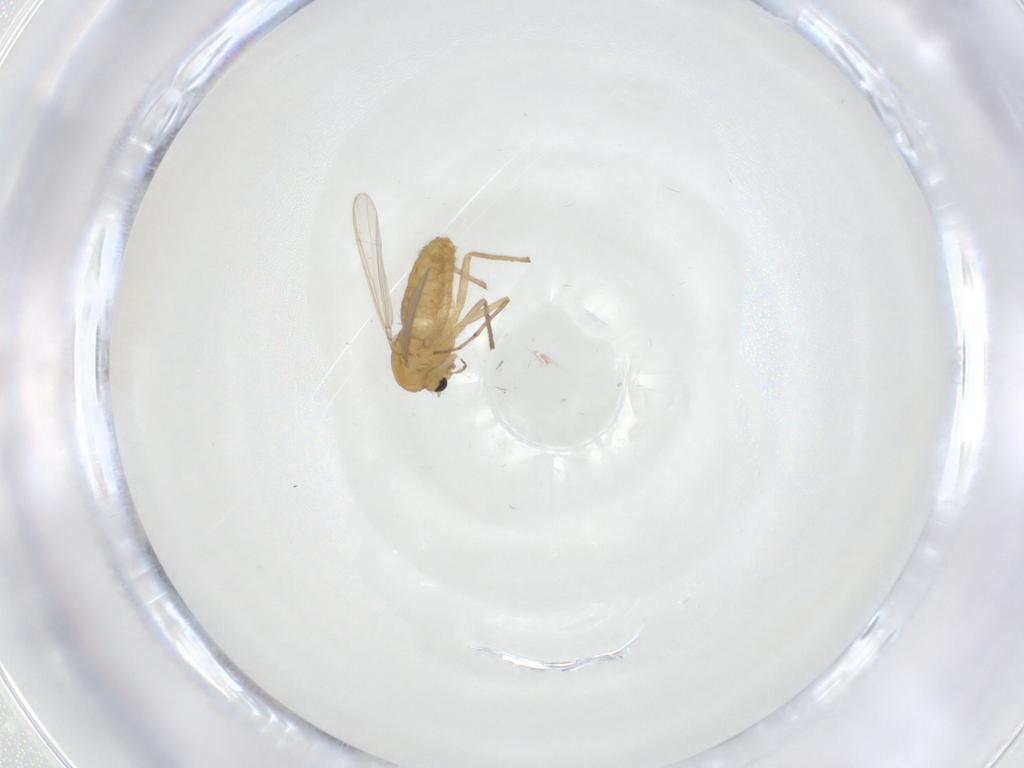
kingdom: Animalia
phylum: Arthropoda
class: Insecta
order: Diptera
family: Chironomidae
